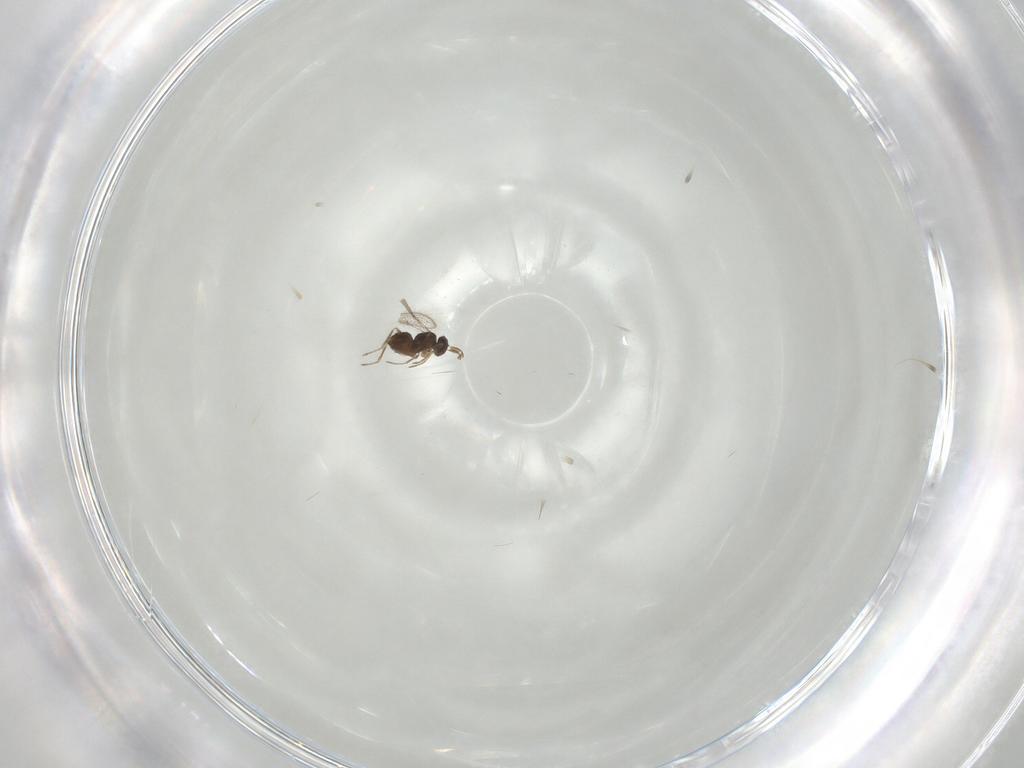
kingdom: Animalia
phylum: Arthropoda
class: Insecta
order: Hymenoptera
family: Mymaridae
